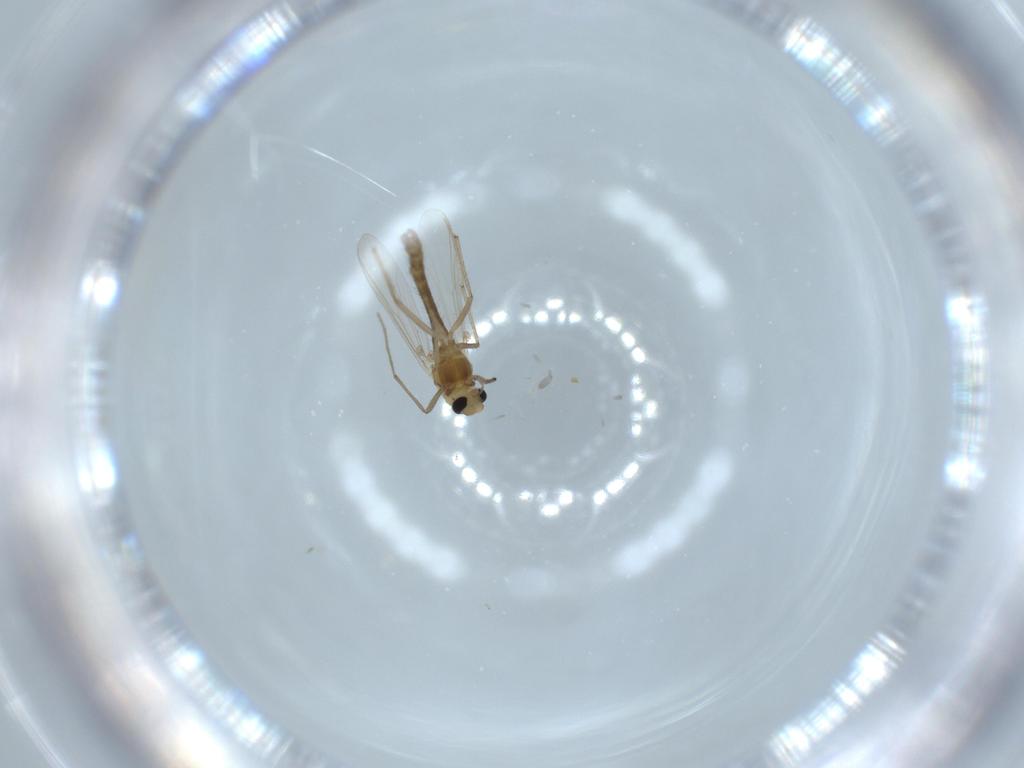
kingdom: Animalia
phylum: Arthropoda
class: Insecta
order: Diptera
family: Chironomidae
